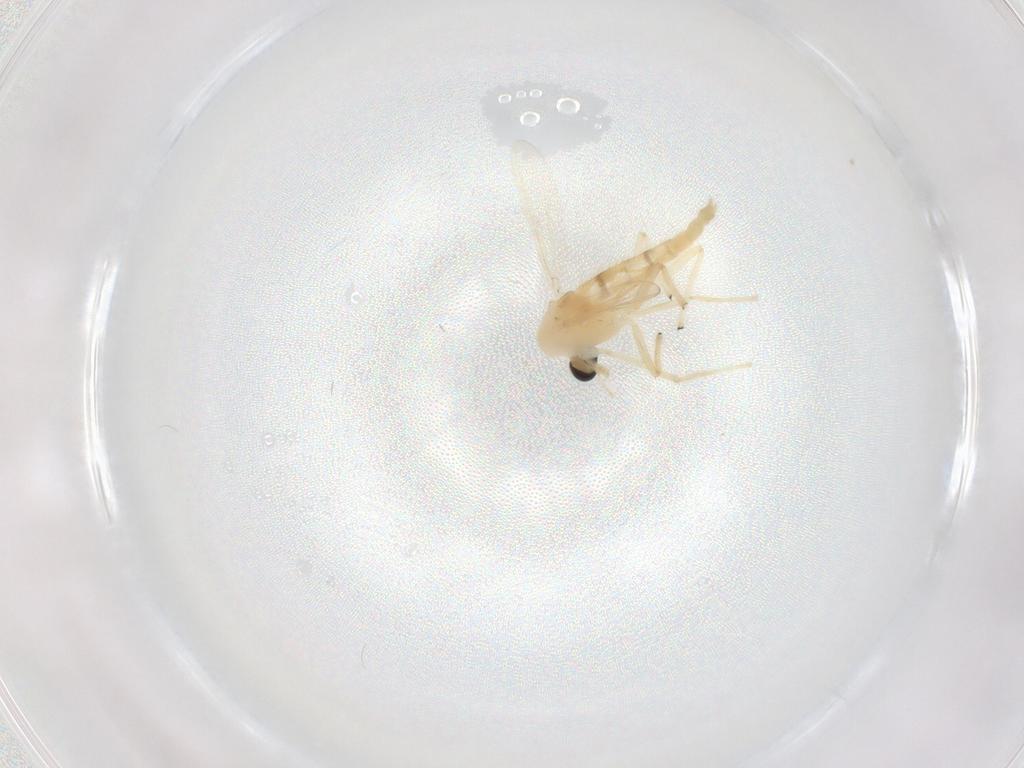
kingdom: Animalia
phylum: Arthropoda
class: Insecta
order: Diptera
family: Chironomidae
